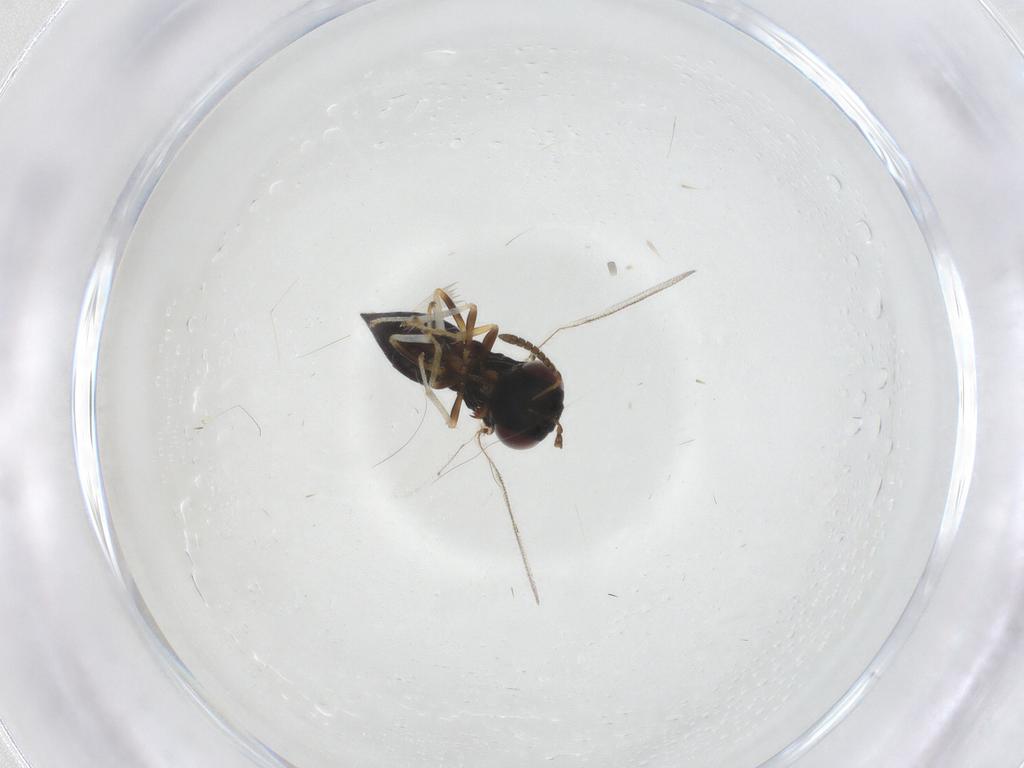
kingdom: Animalia
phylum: Arthropoda
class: Insecta
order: Hymenoptera
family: Pteromalidae
